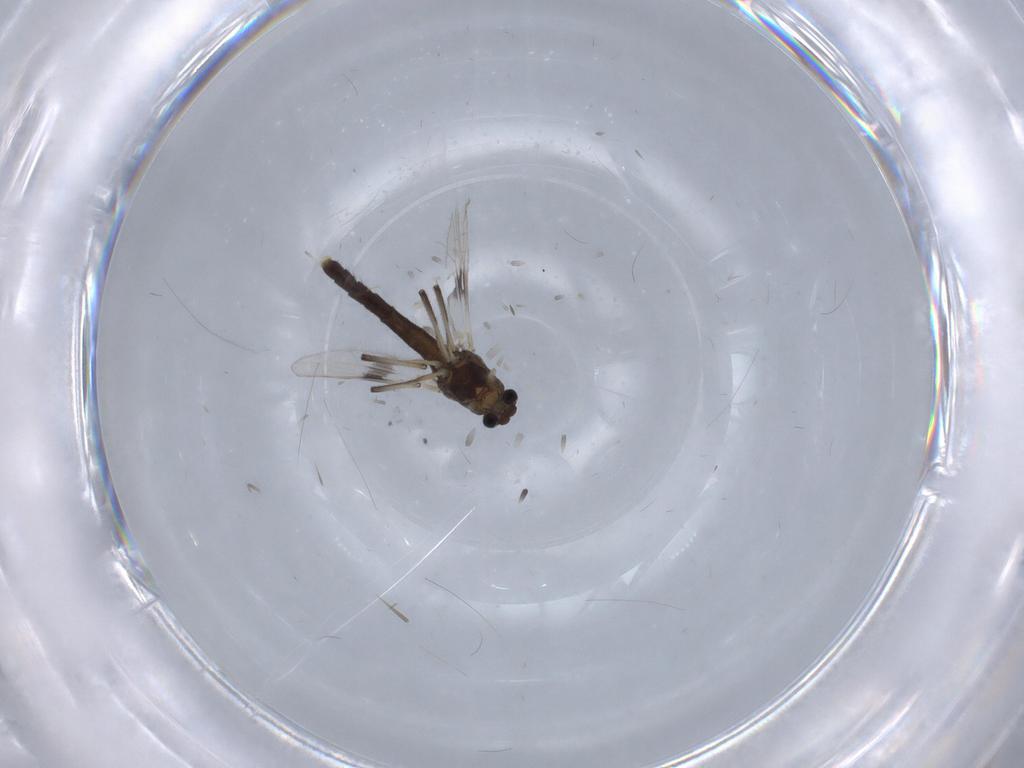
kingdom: Animalia
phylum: Arthropoda
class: Insecta
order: Diptera
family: Chironomidae
